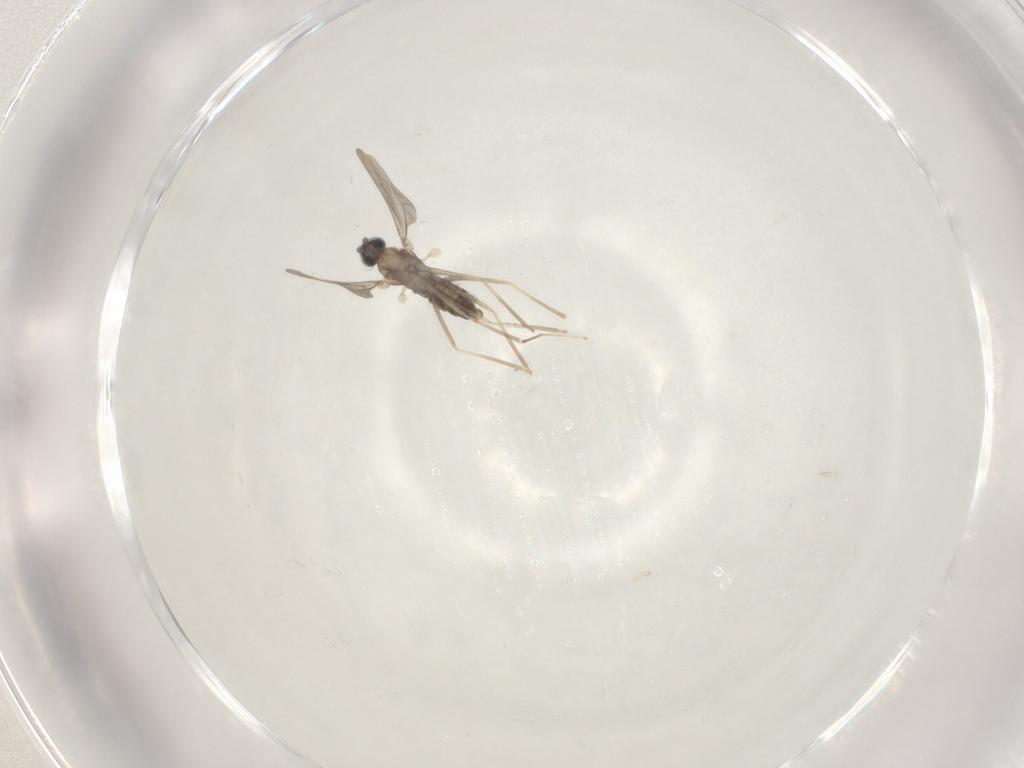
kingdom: Animalia
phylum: Arthropoda
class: Insecta
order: Diptera
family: Cecidomyiidae
